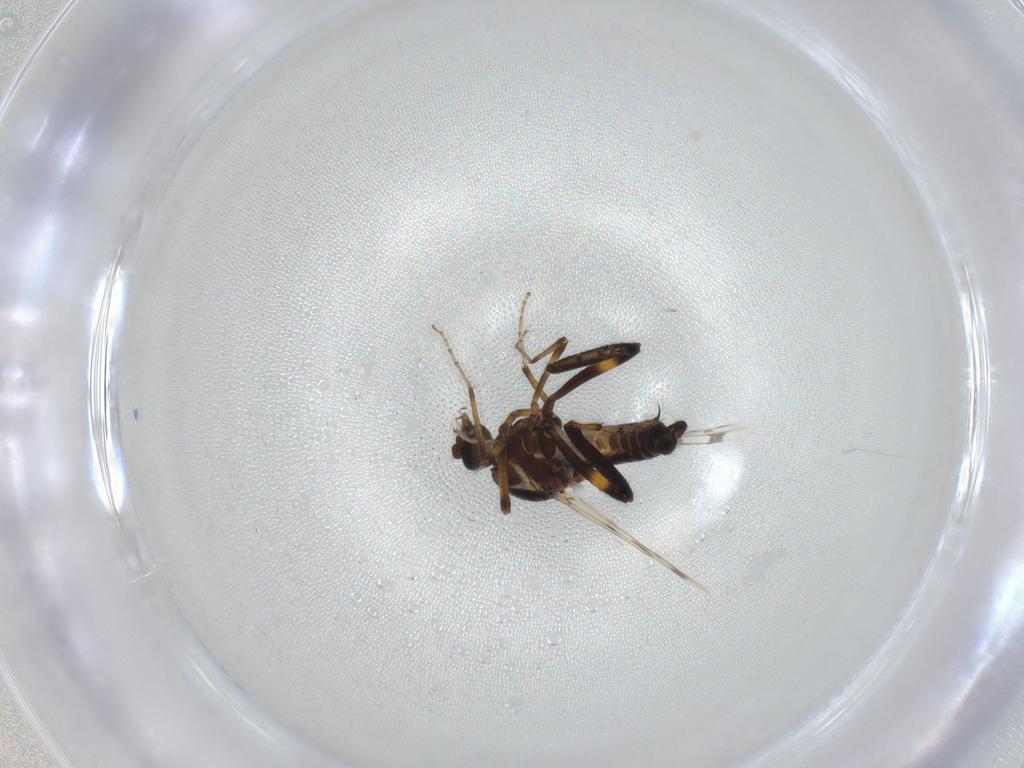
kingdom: Animalia
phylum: Arthropoda
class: Insecta
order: Diptera
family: Ceratopogonidae
